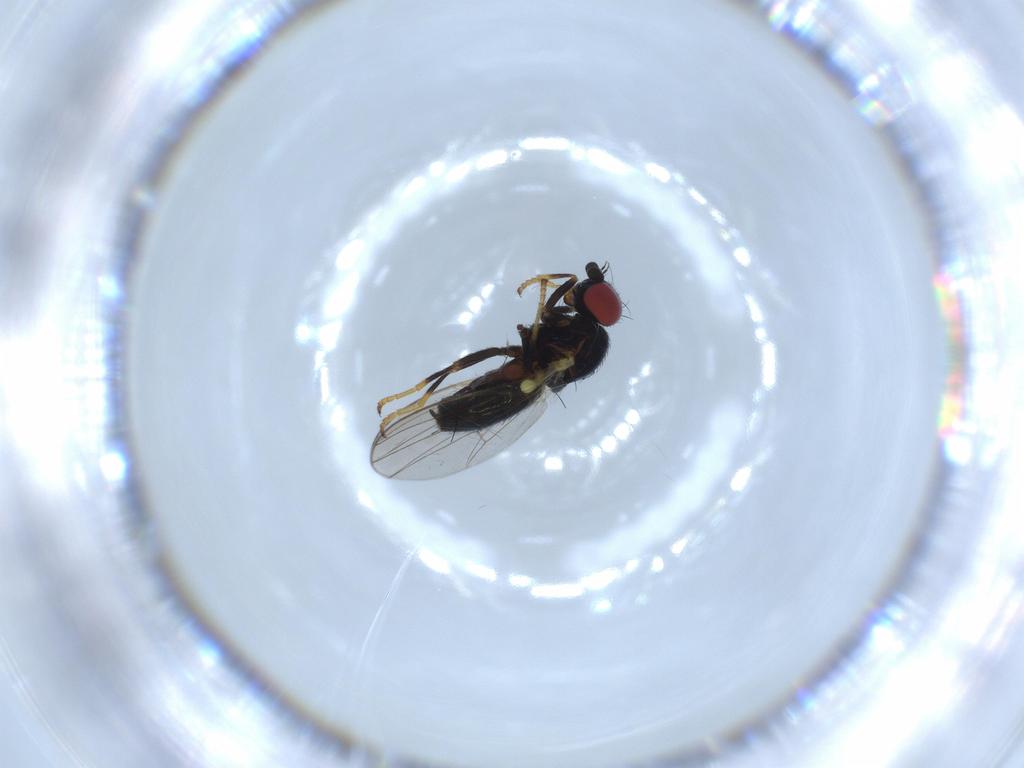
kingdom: Animalia
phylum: Arthropoda
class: Insecta
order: Diptera
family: Chamaemyiidae
